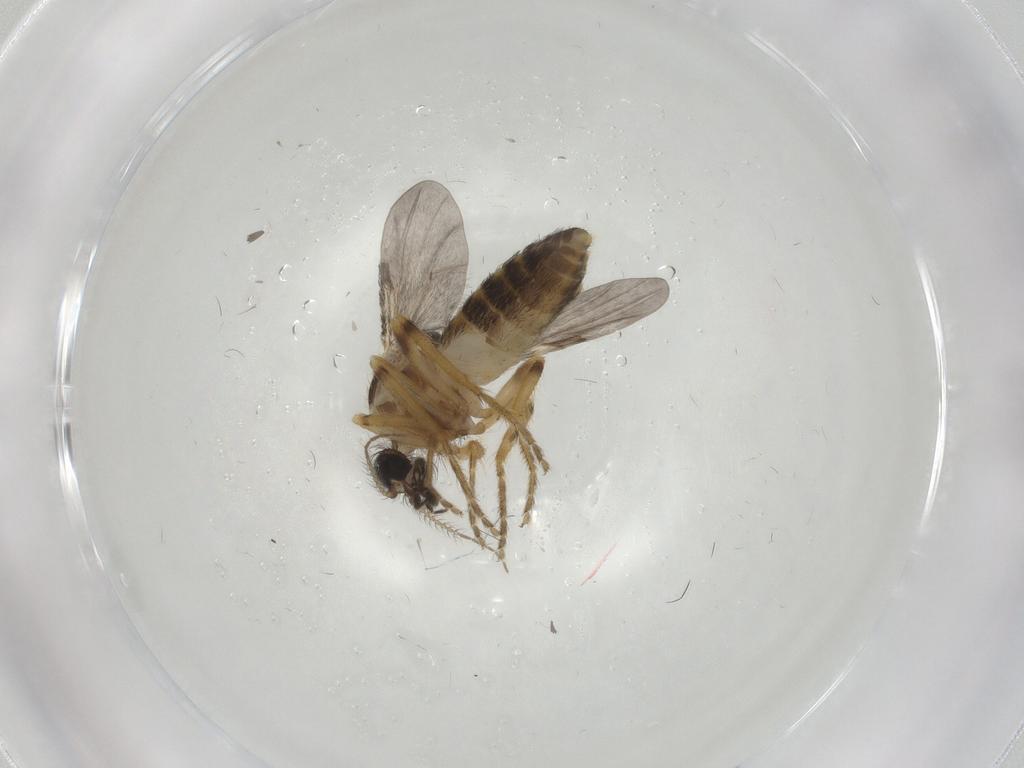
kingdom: Animalia
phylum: Arthropoda
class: Insecta
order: Diptera
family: Ceratopogonidae
